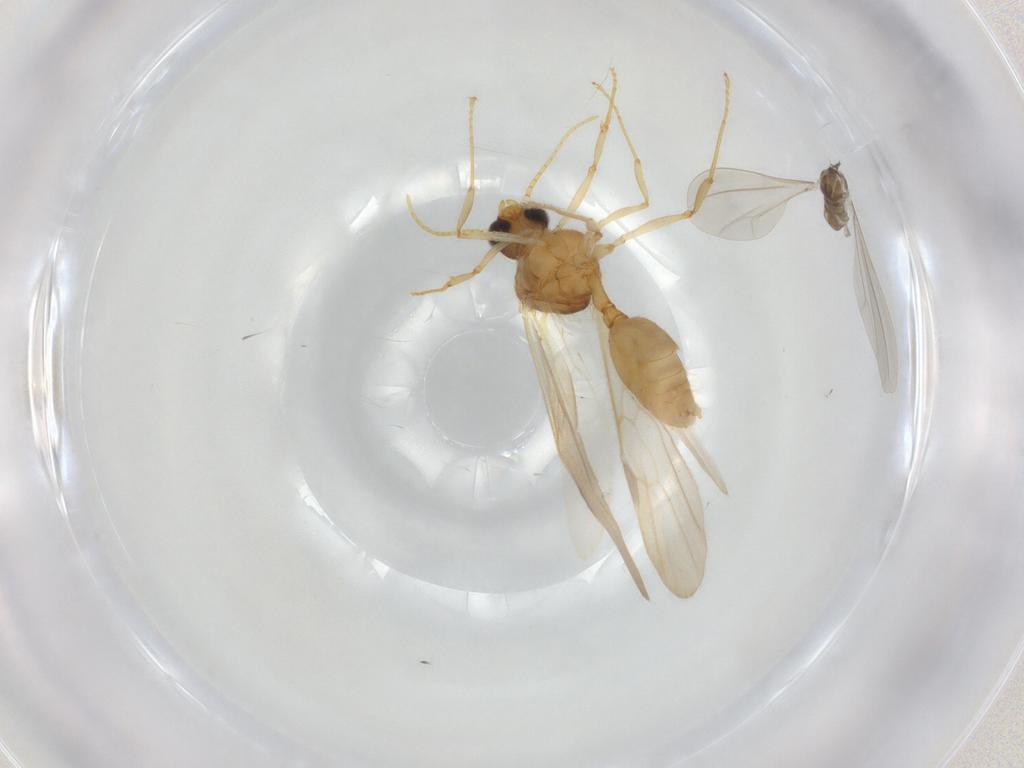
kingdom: Animalia
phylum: Arthropoda
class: Insecta
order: Diptera
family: Cecidomyiidae
